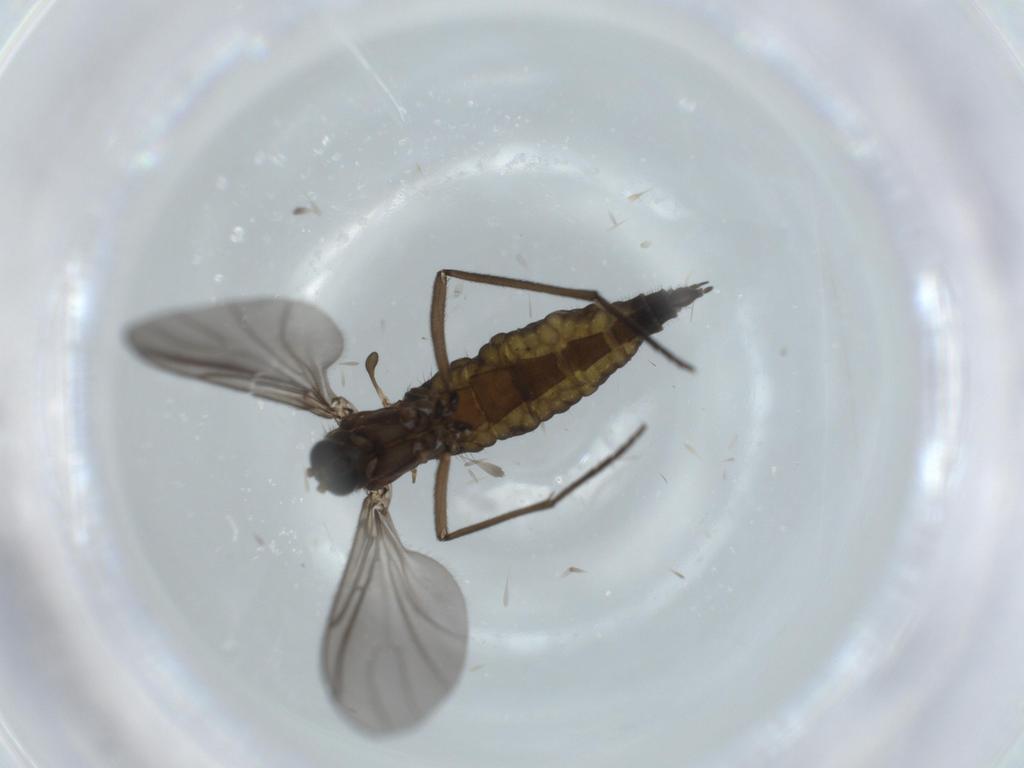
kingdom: Animalia
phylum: Arthropoda
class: Insecta
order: Diptera
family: Sciaridae
